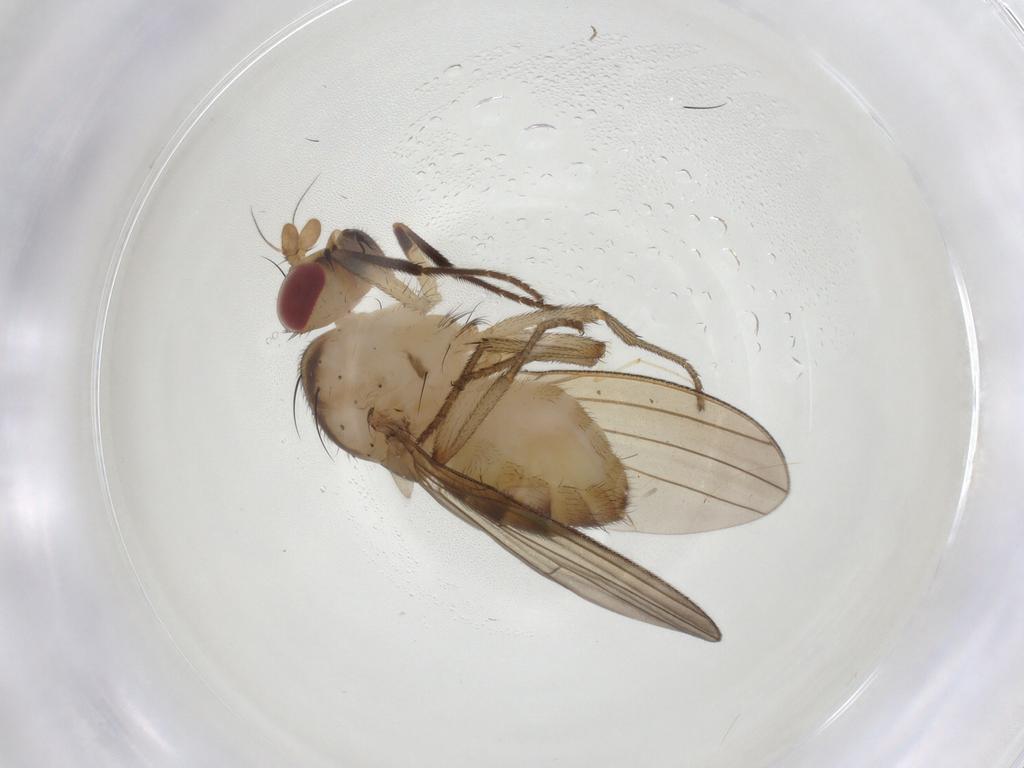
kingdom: Animalia
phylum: Arthropoda
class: Insecta
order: Diptera
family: Lauxaniidae
